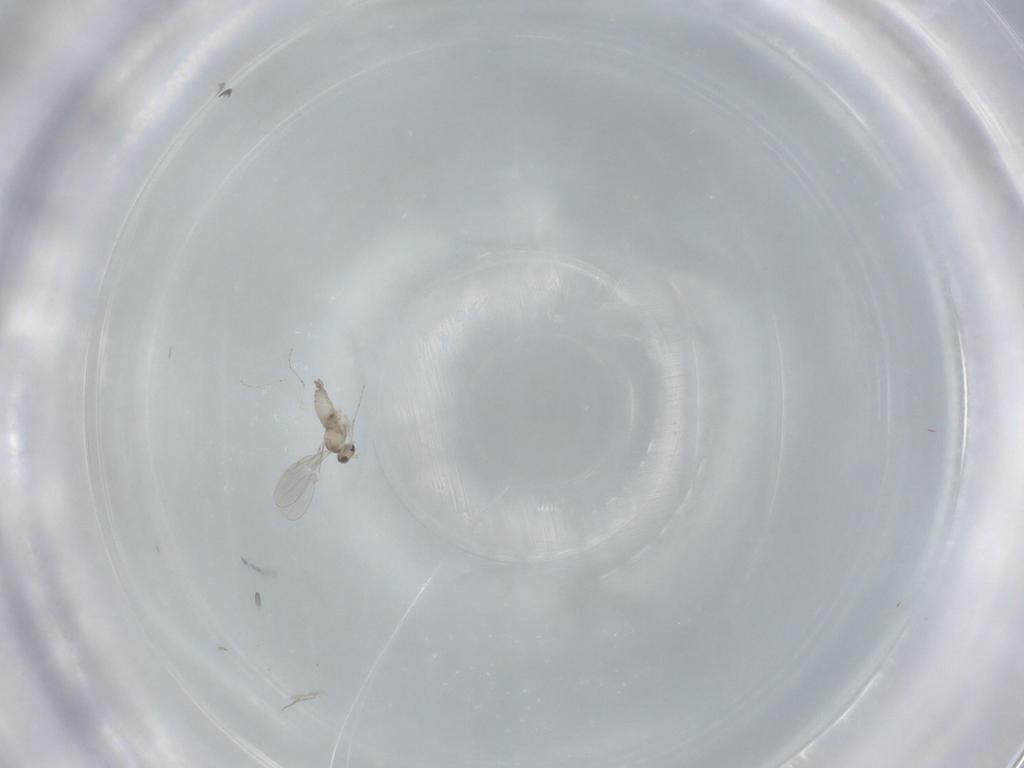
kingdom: Animalia
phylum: Arthropoda
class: Insecta
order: Diptera
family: Cecidomyiidae
